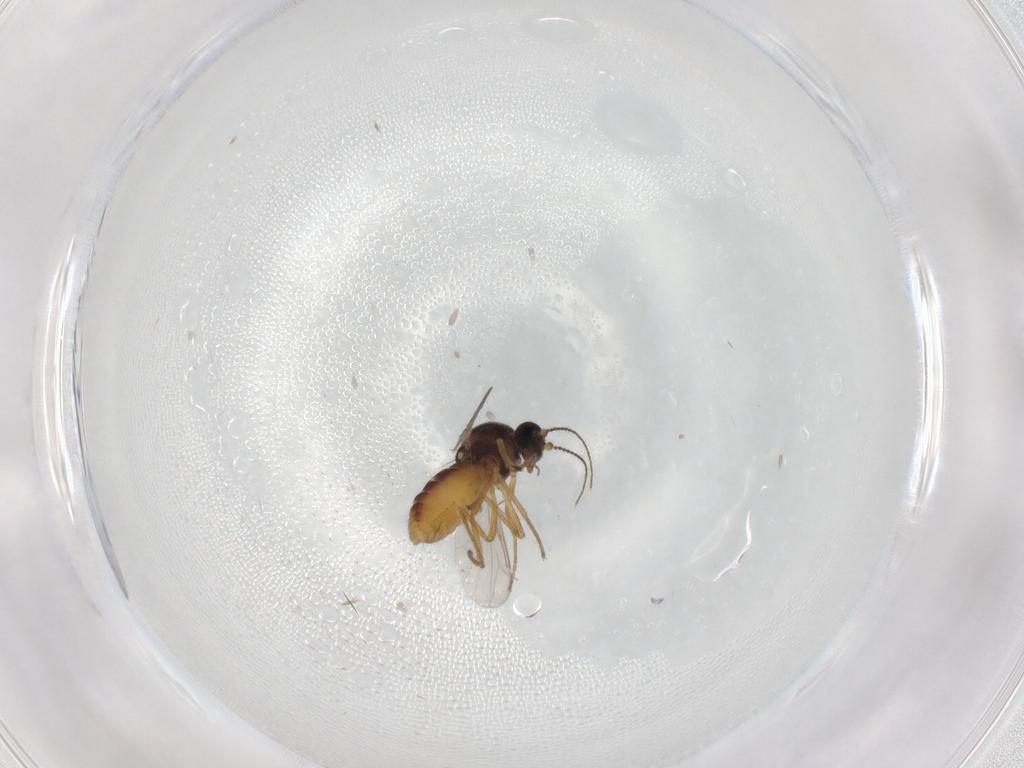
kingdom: Animalia
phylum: Arthropoda
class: Insecta
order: Diptera
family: Ceratopogonidae
